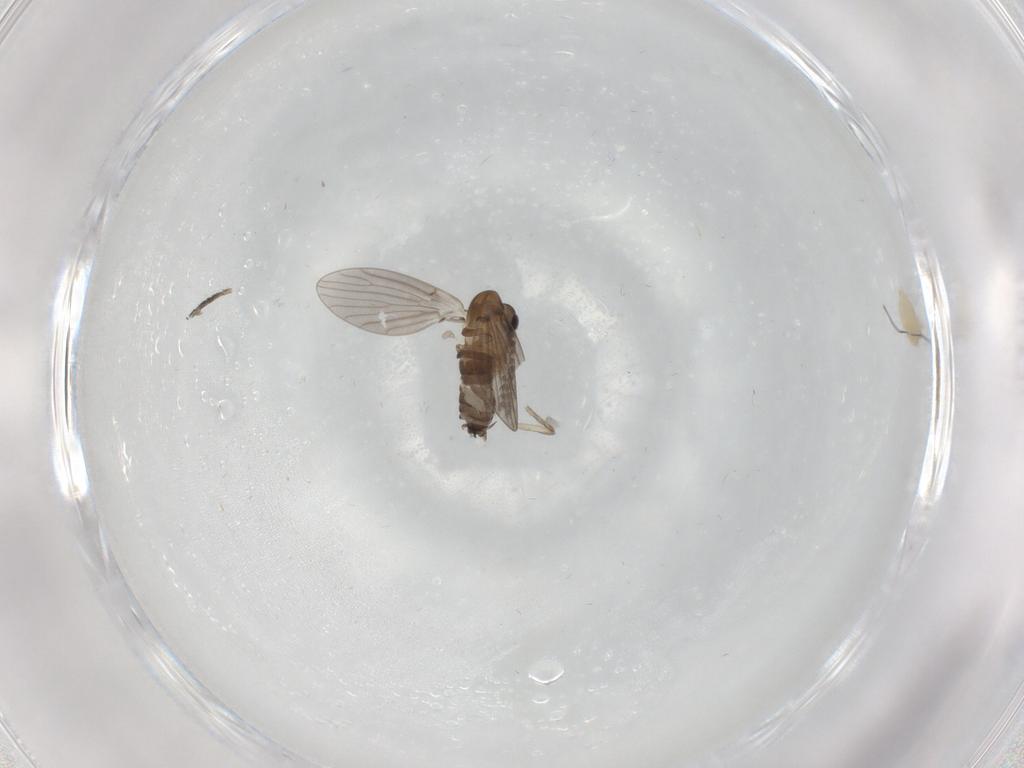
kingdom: Animalia
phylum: Arthropoda
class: Insecta
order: Diptera
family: Psychodidae
